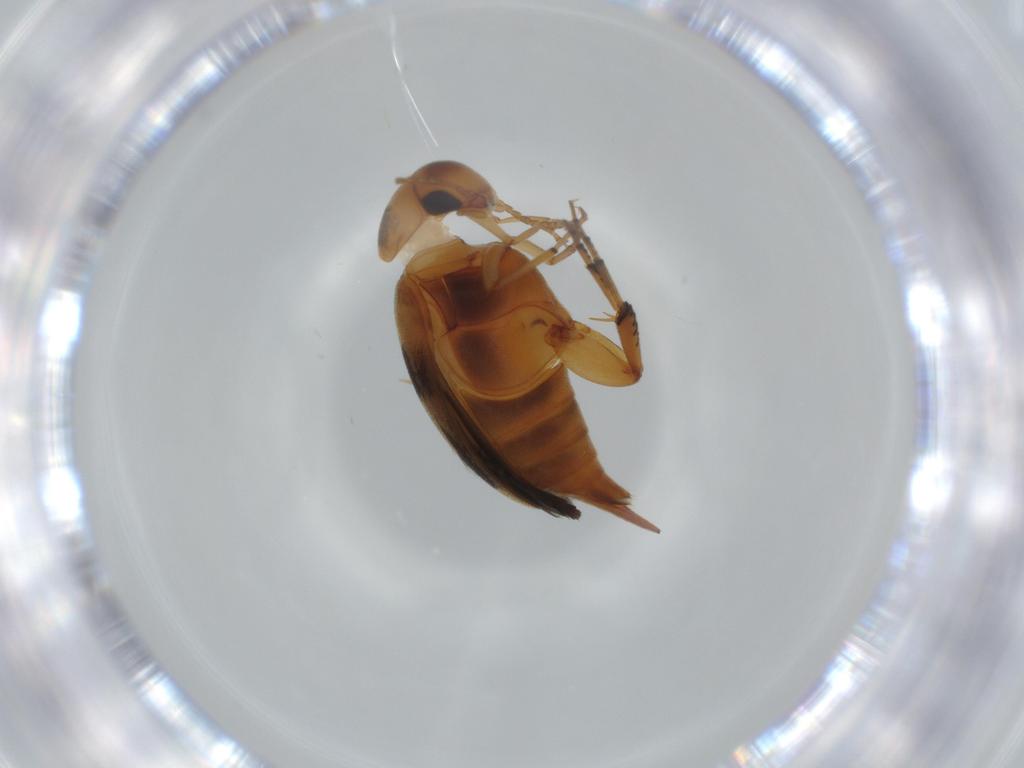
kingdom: Animalia
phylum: Arthropoda
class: Insecta
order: Coleoptera
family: Mordellidae
